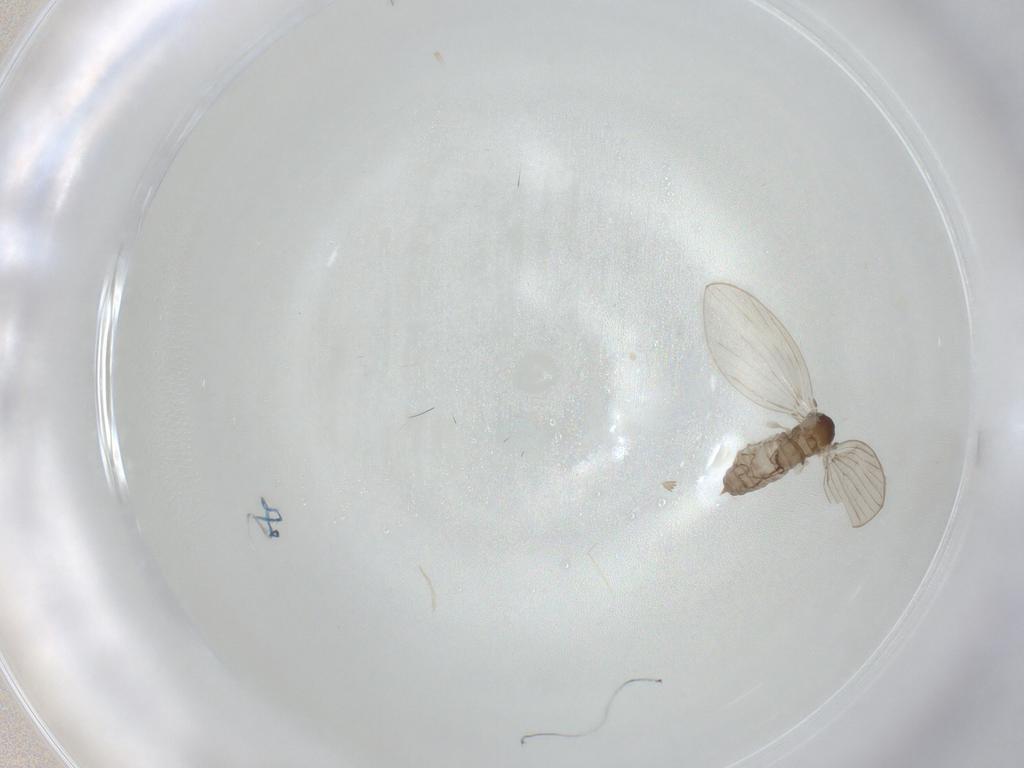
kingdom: Animalia
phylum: Arthropoda
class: Insecta
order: Diptera
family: Psychodidae
